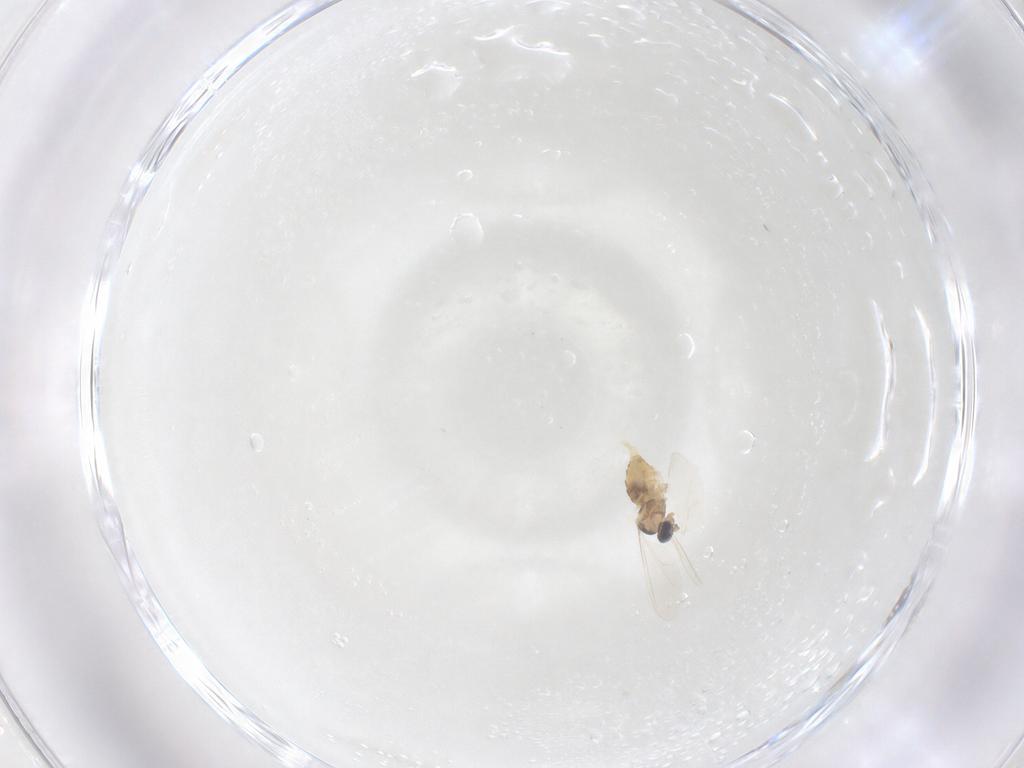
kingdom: Animalia
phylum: Arthropoda
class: Insecta
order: Diptera
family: Cecidomyiidae
